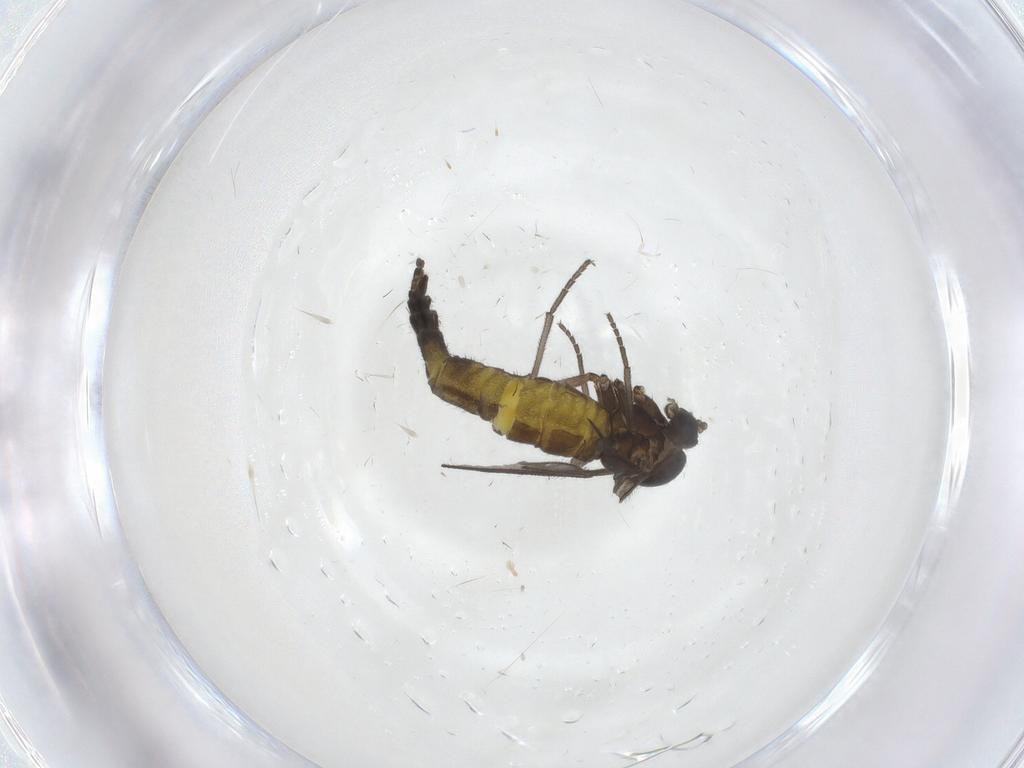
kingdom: Animalia
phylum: Arthropoda
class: Insecta
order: Diptera
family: Sciaridae
